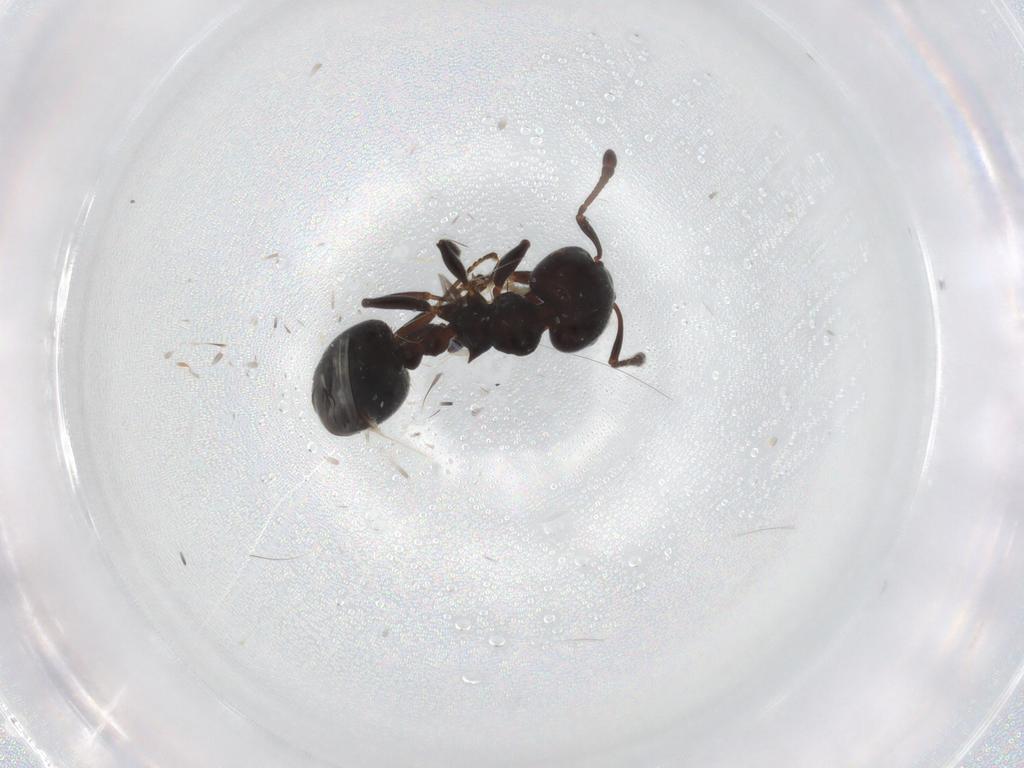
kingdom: Animalia
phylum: Arthropoda
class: Insecta
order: Hymenoptera
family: Formicidae
